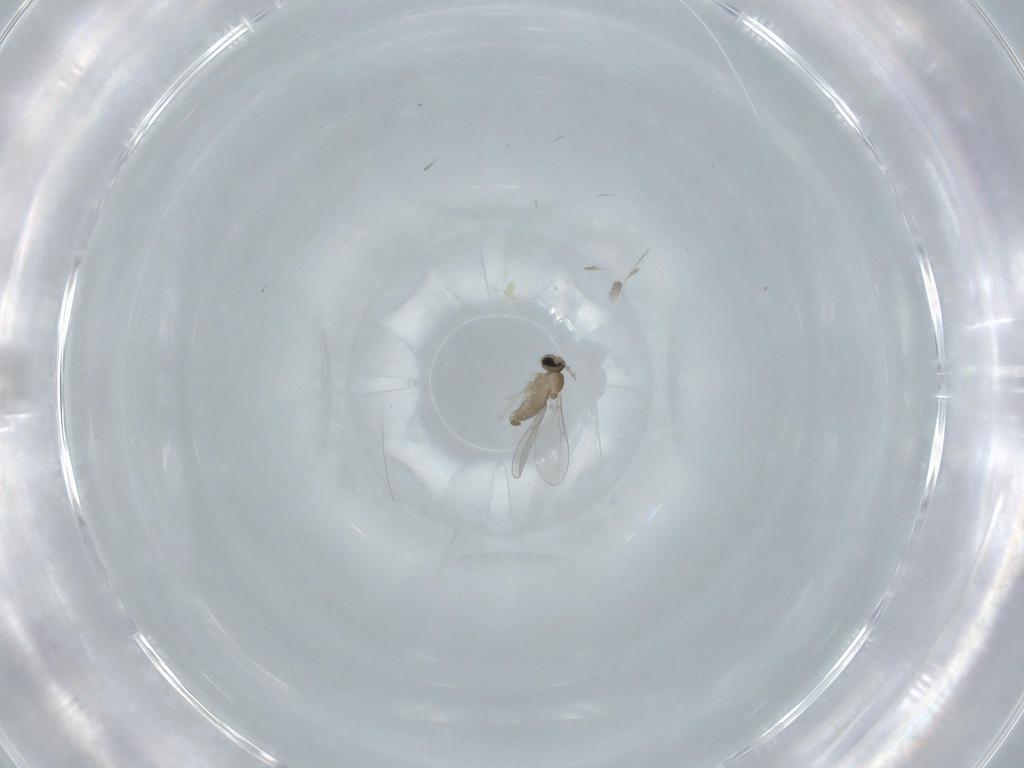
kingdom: Animalia
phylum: Arthropoda
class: Insecta
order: Diptera
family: Cecidomyiidae
